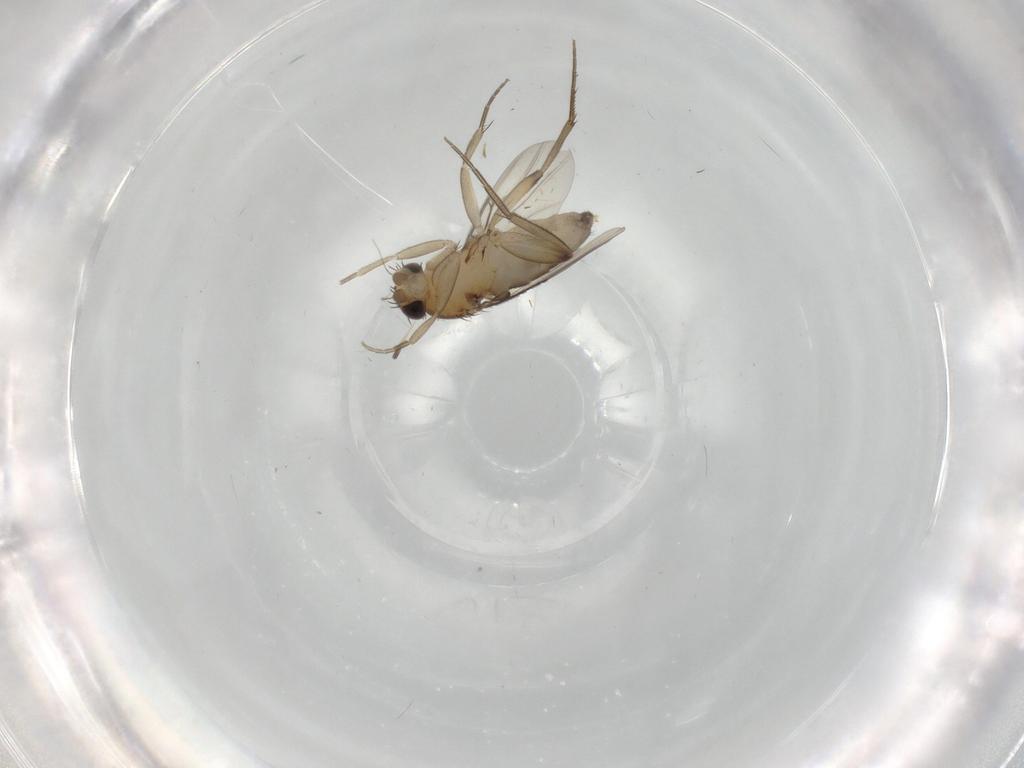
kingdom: Animalia
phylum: Arthropoda
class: Insecta
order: Diptera
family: Phoridae
